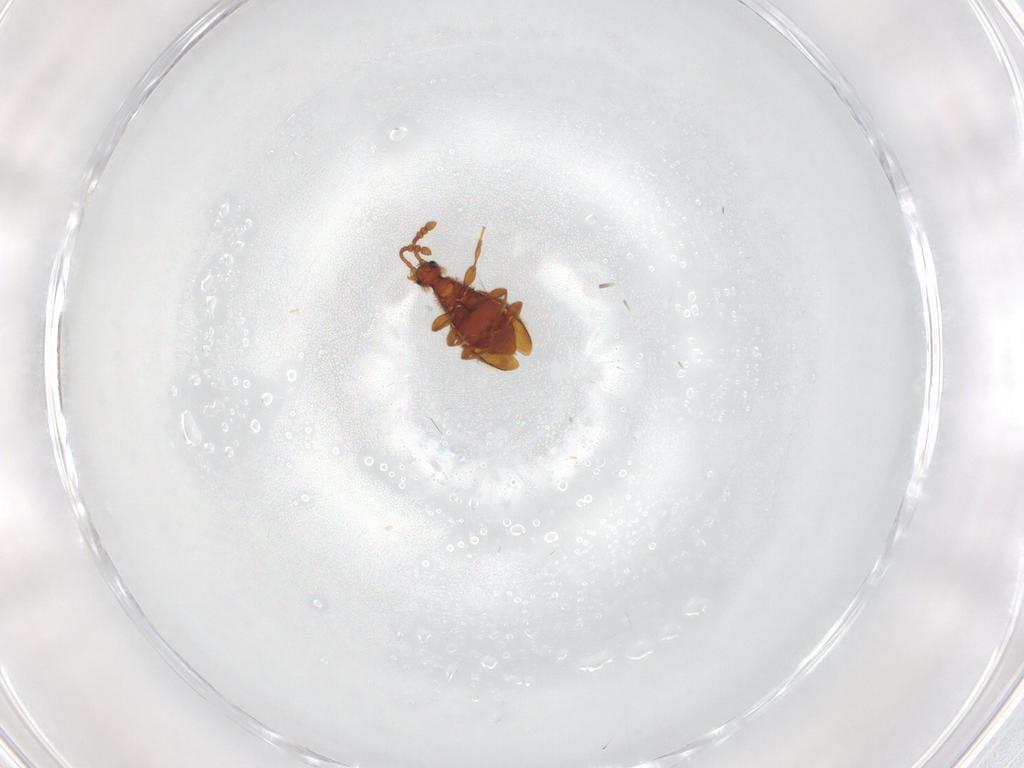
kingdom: Animalia
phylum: Arthropoda
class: Insecta
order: Coleoptera
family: Staphylinidae
